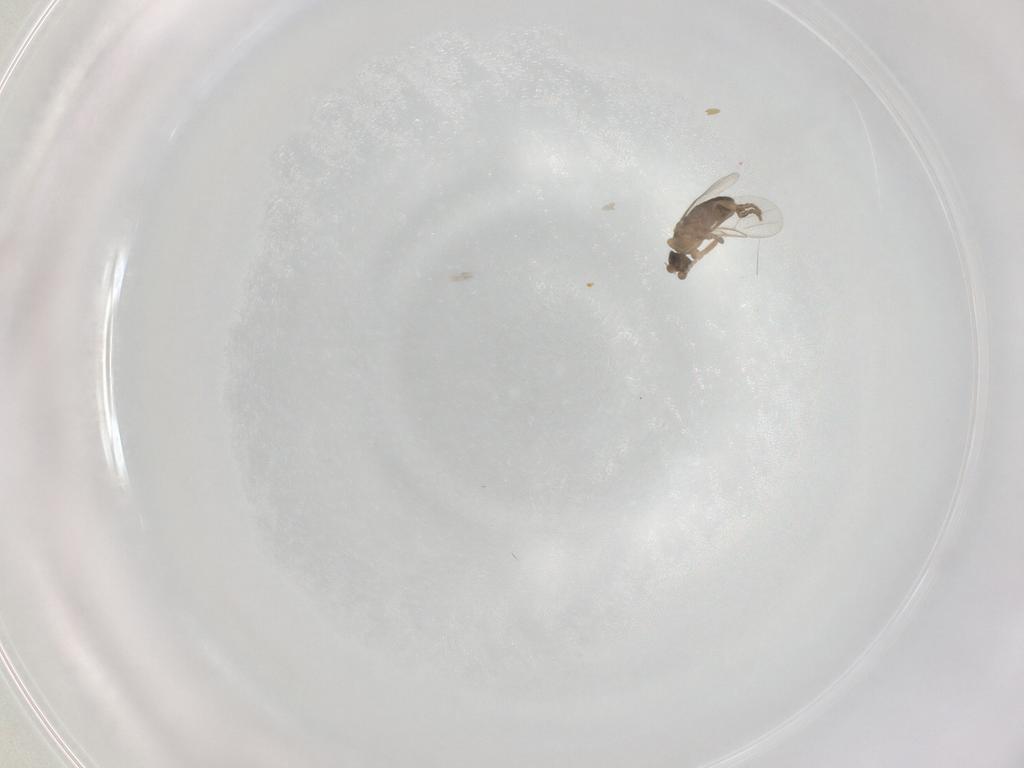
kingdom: Animalia
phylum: Arthropoda
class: Insecta
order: Diptera
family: Phoridae
